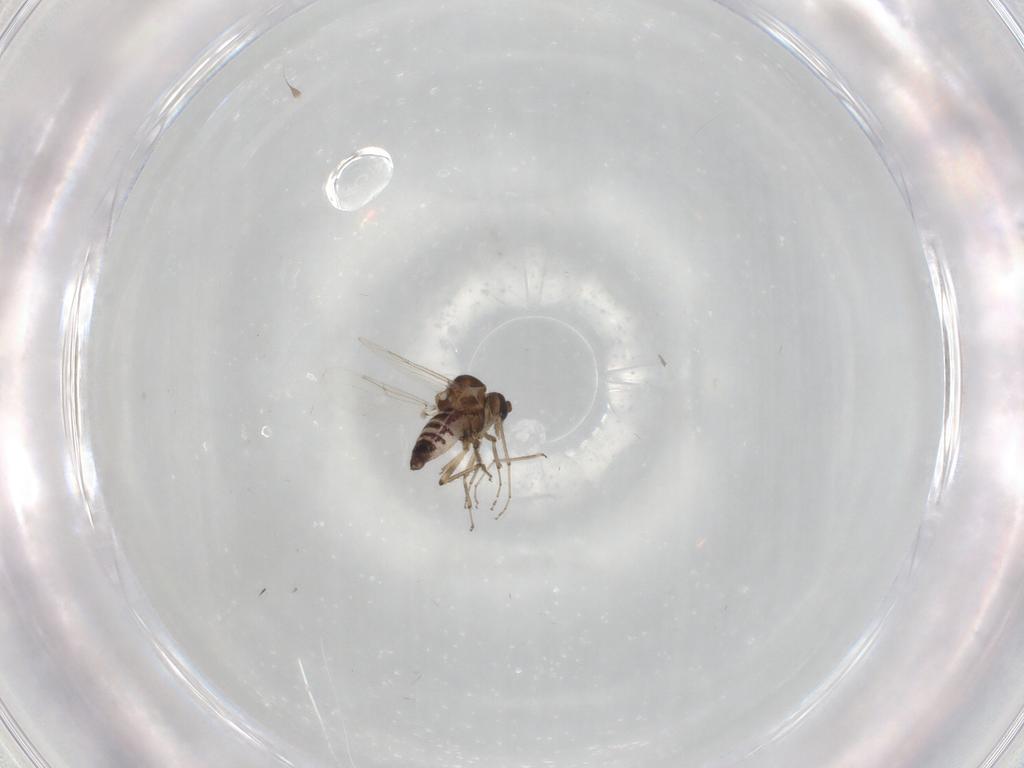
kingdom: Animalia
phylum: Arthropoda
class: Insecta
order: Diptera
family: Ceratopogonidae
